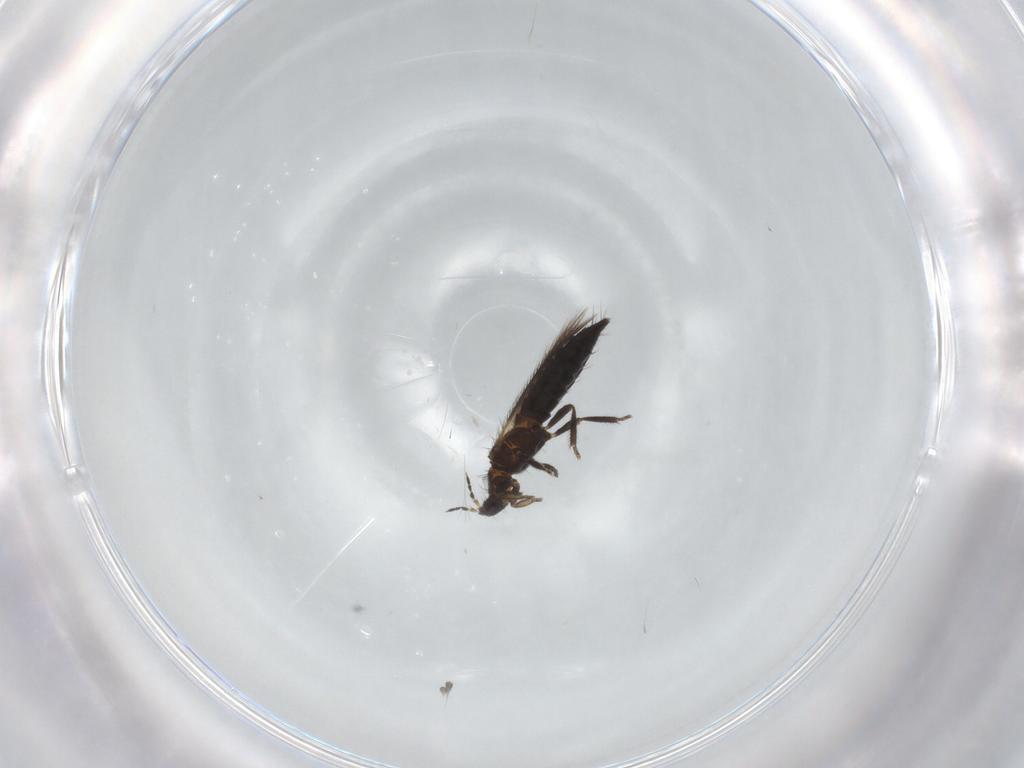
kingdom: Animalia
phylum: Arthropoda
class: Insecta
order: Thysanoptera
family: Thripidae
